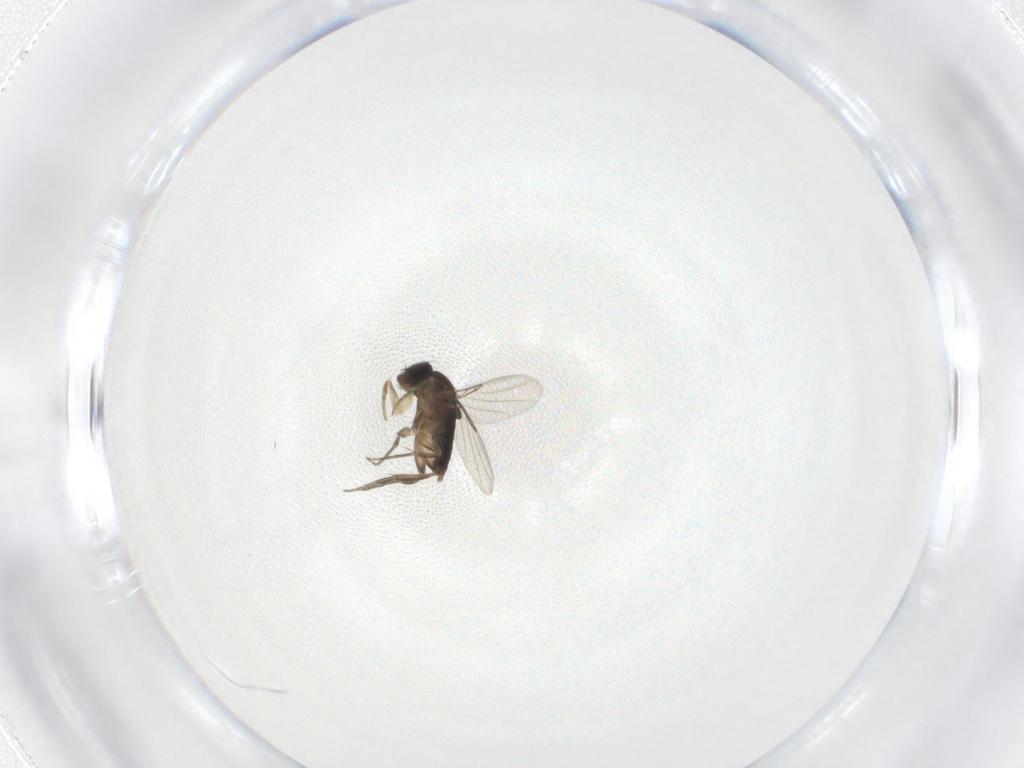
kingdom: Animalia
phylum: Arthropoda
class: Insecta
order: Diptera
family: Phoridae
